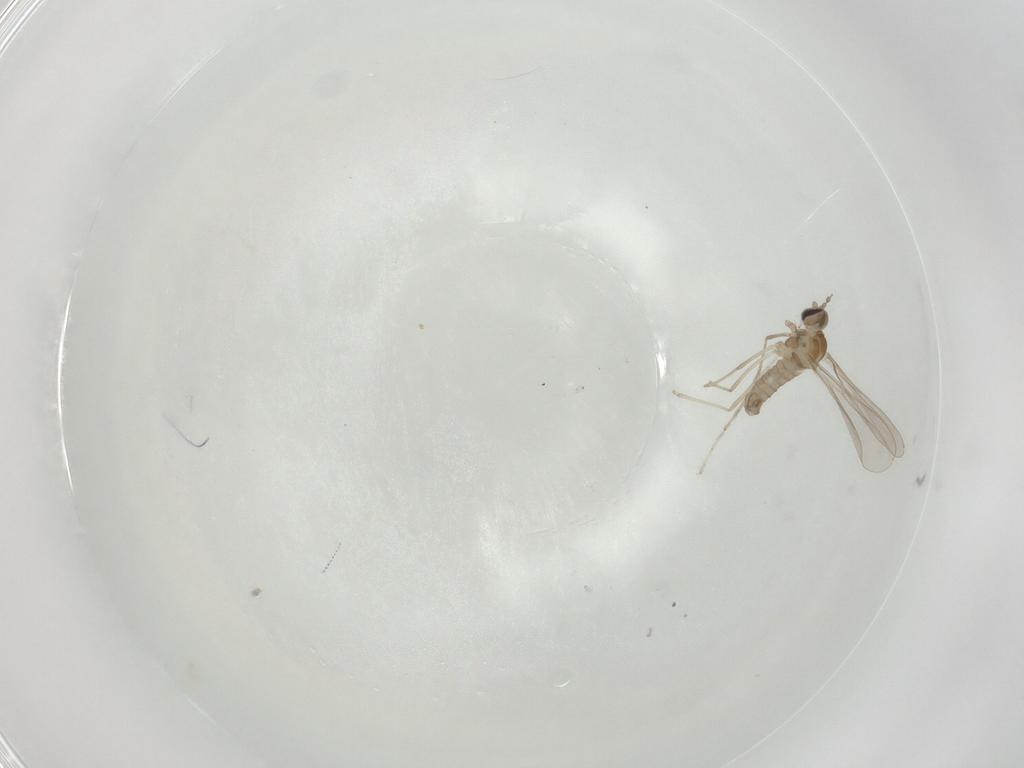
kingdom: Animalia
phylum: Arthropoda
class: Insecta
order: Diptera
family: Cecidomyiidae
